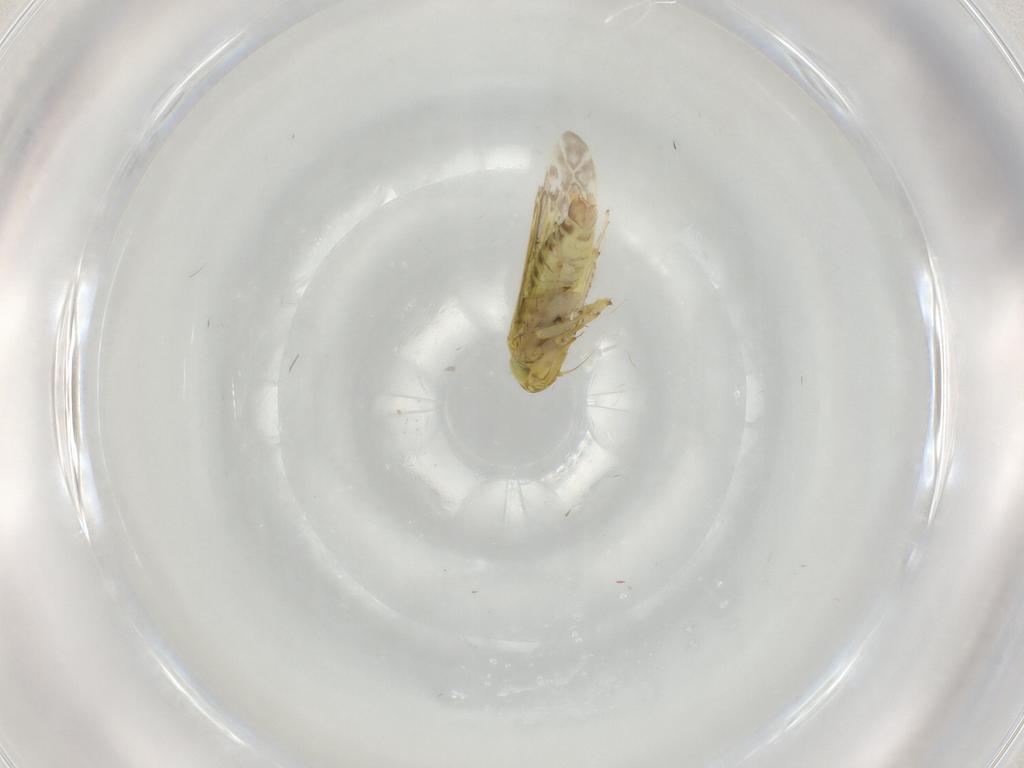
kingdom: Animalia
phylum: Arthropoda
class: Insecta
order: Hemiptera
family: Cicadellidae
